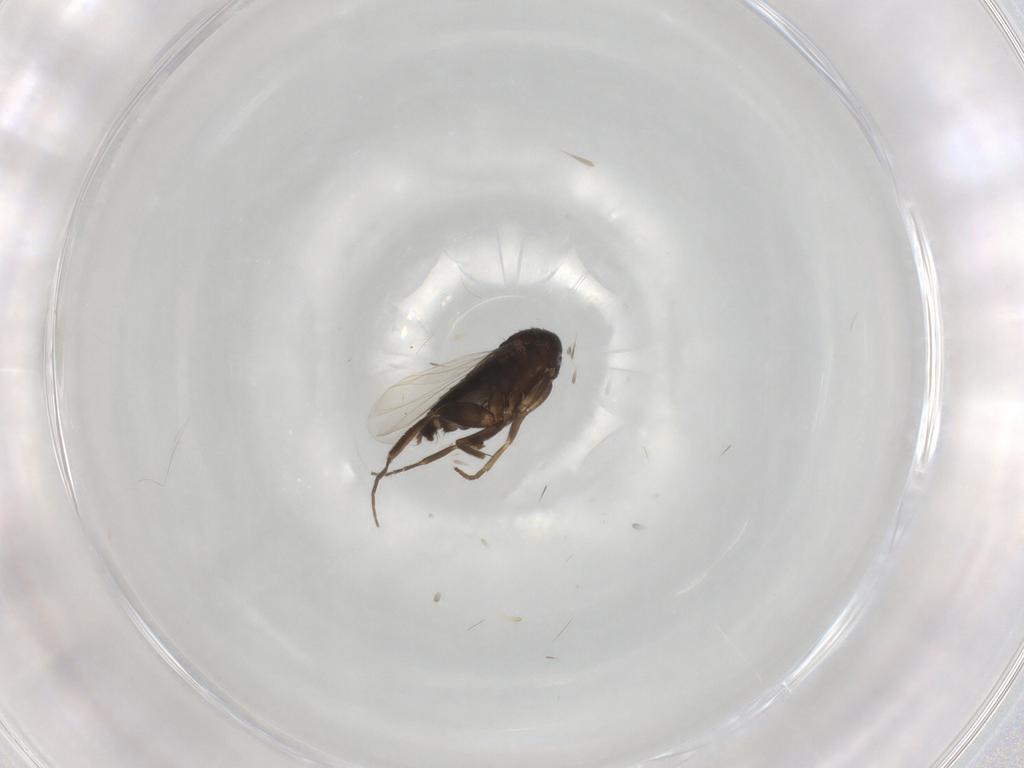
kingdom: Animalia
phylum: Arthropoda
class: Insecta
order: Diptera
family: Phoridae
